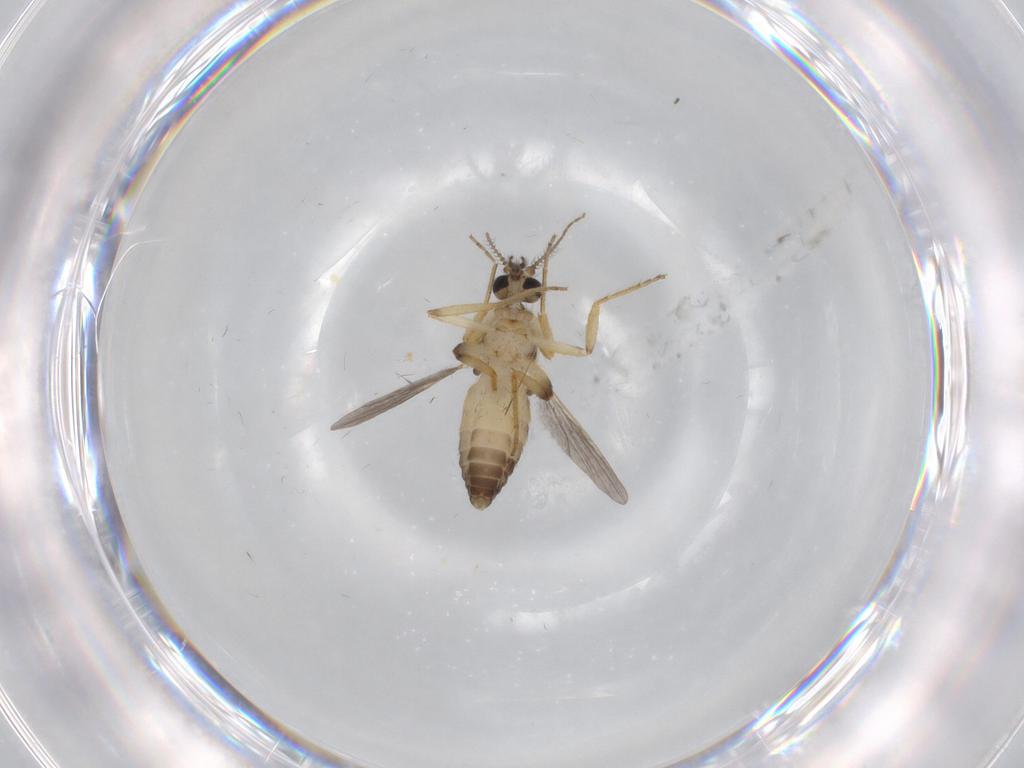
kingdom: Animalia
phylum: Arthropoda
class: Insecta
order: Diptera
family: Ceratopogonidae
